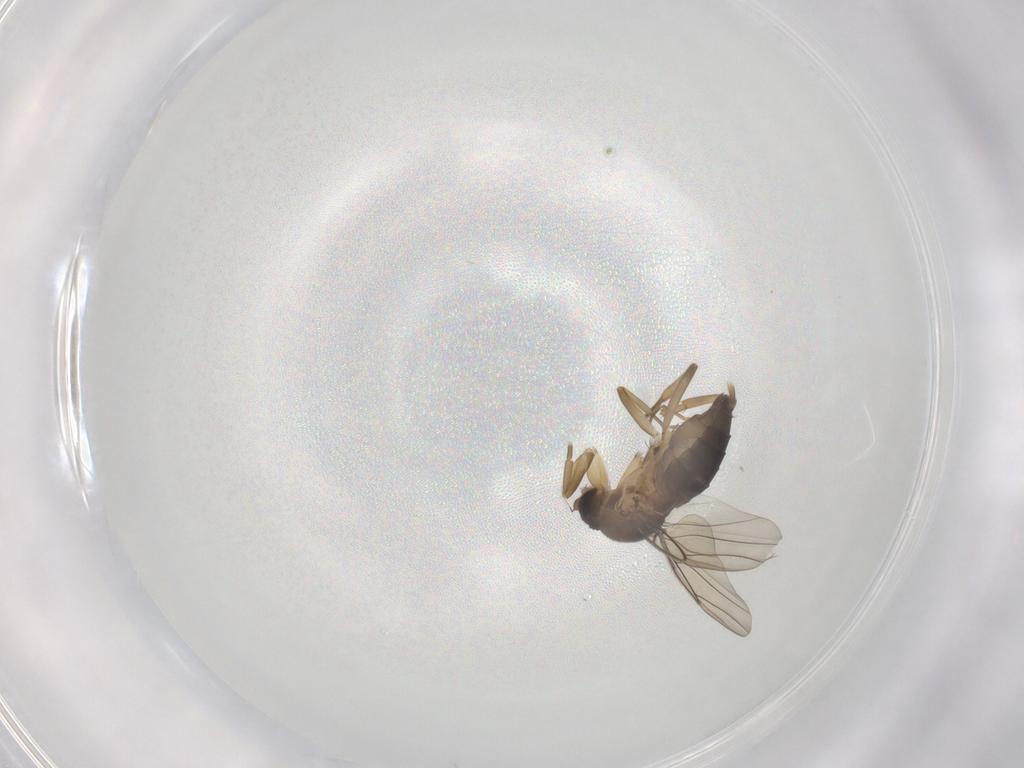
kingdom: Animalia
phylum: Arthropoda
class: Insecta
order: Diptera
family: Phoridae
